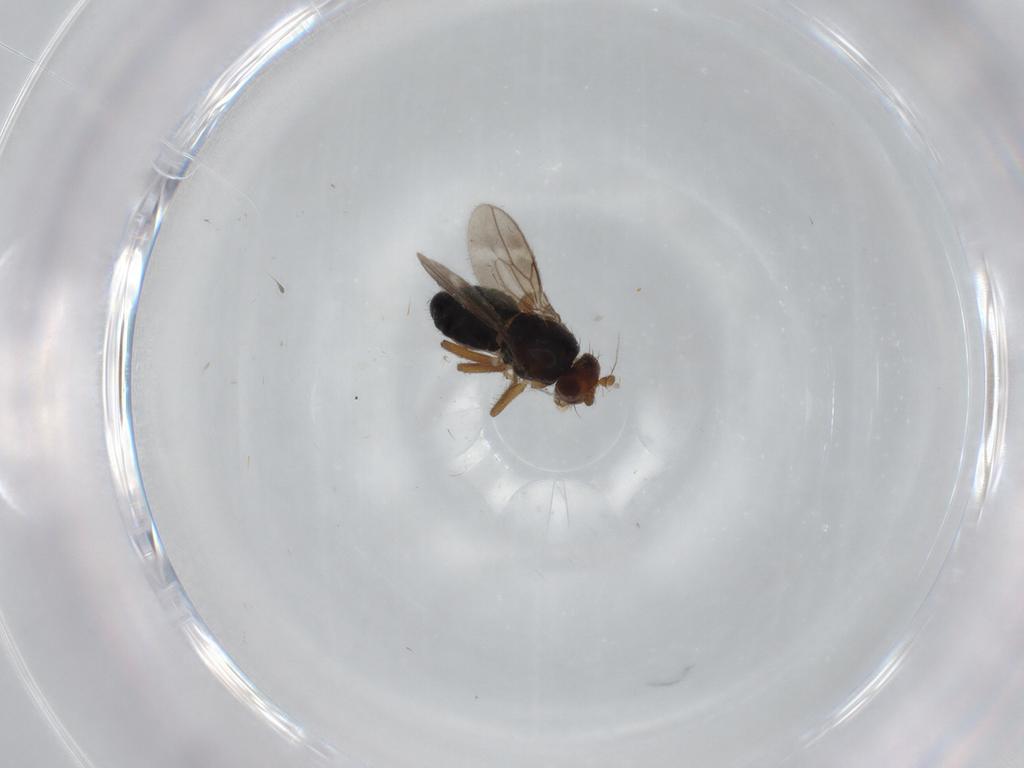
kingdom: Animalia
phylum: Arthropoda
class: Insecta
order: Diptera
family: Sphaeroceridae
